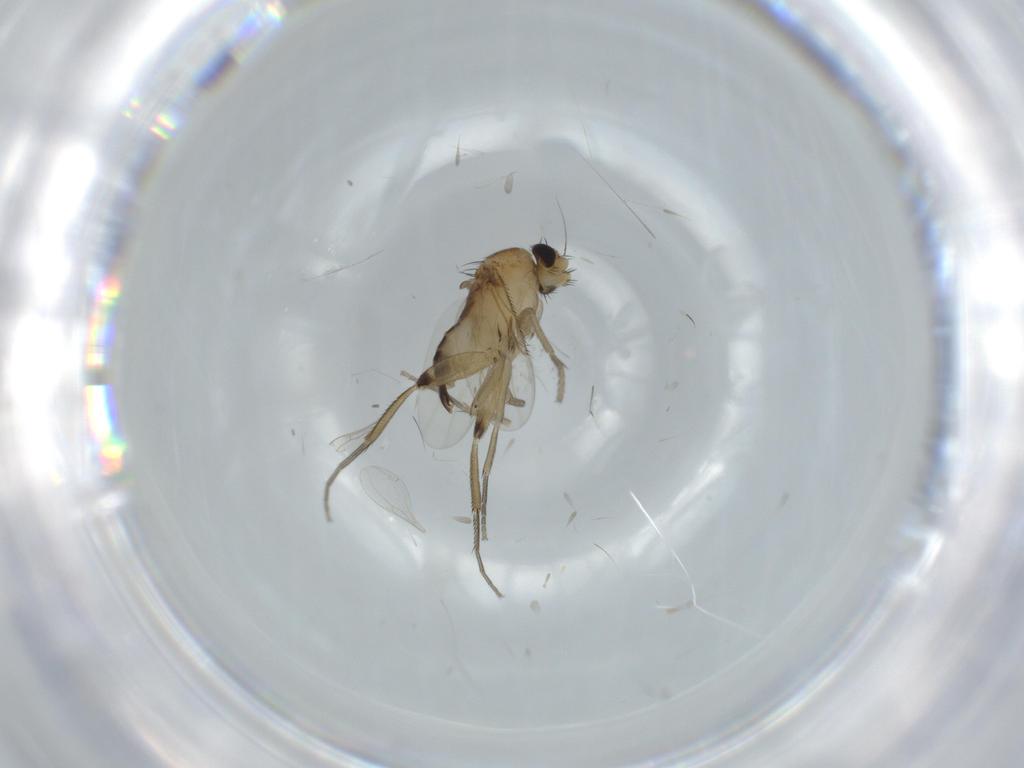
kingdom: Animalia
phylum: Arthropoda
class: Insecta
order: Diptera
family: Phoridae
